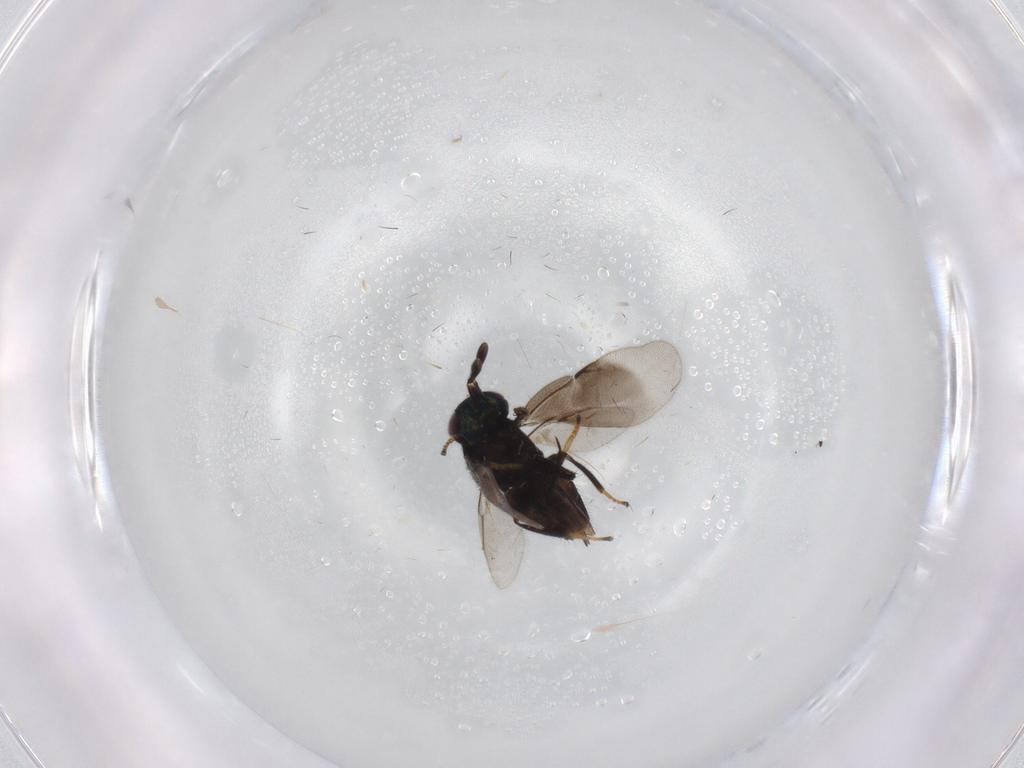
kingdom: Animalia
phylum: Arthropoda
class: Insecta
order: Hymenoptera
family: Encyrtidae
